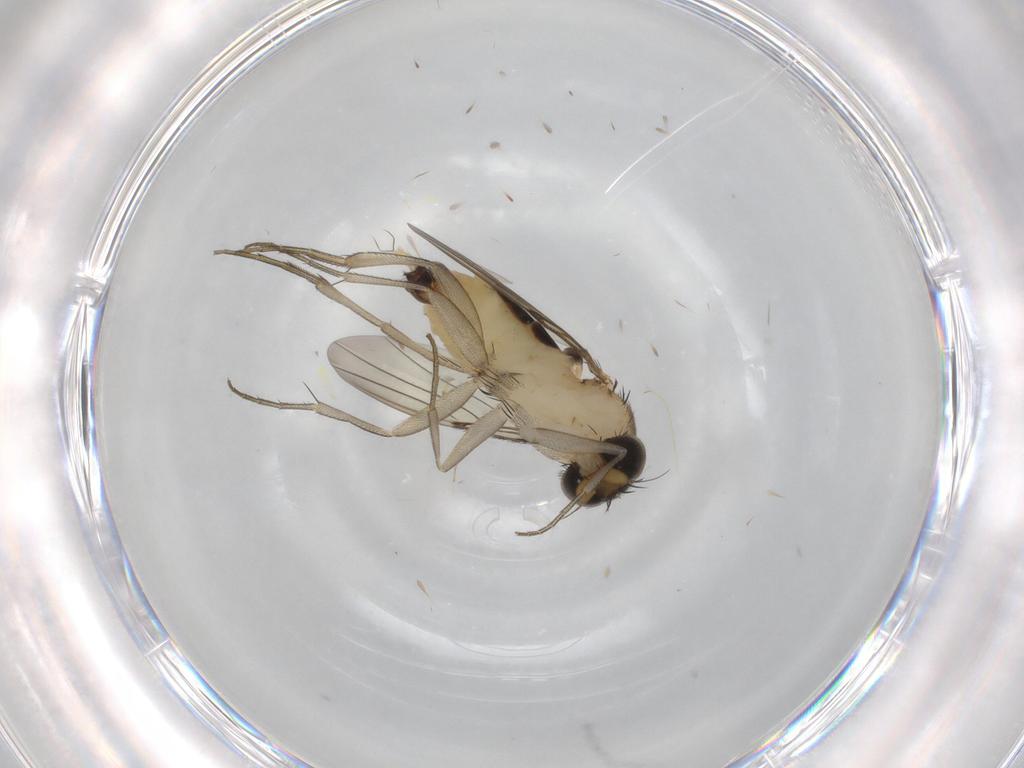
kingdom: Animalia
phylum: Arthropoda
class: Insecta
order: Diptera
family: Phoridae
